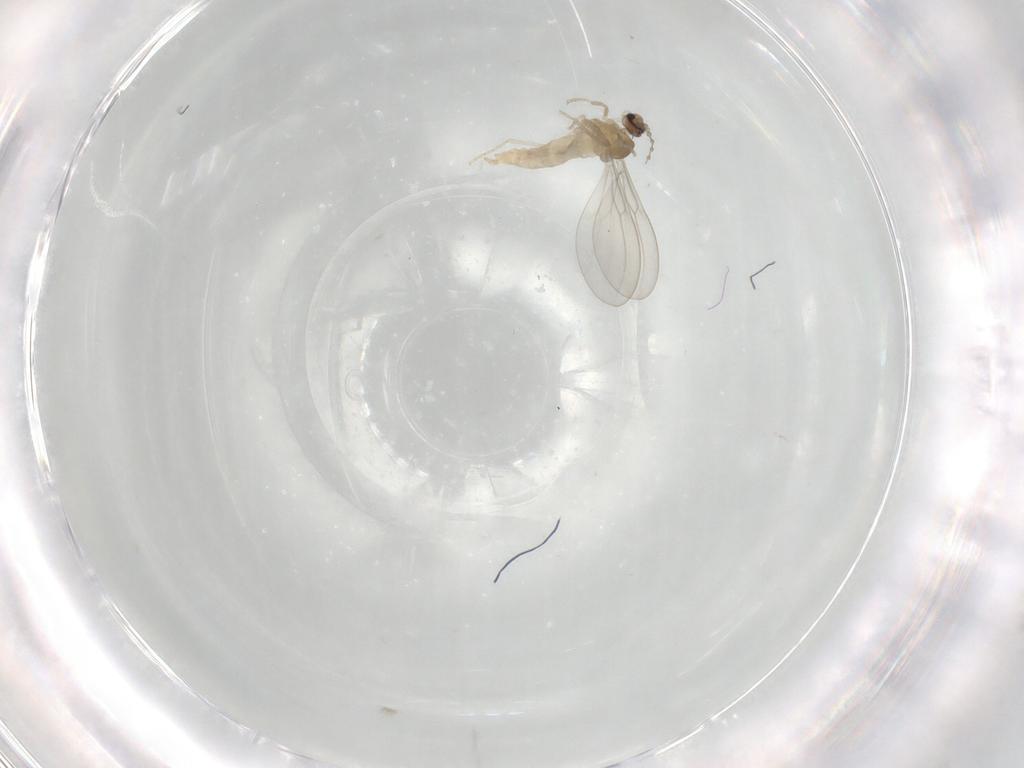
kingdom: Animalia
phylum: Arthropoda
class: Insecta
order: Diptera
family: Cecidomyiidae
